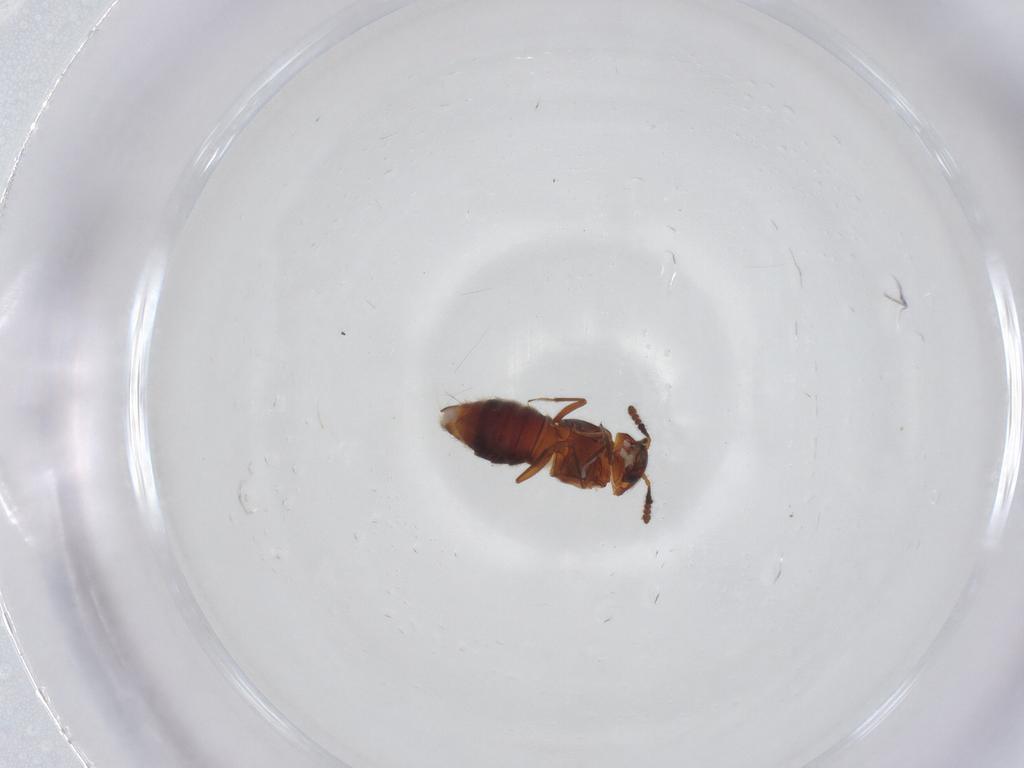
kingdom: Animalia
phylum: Arthropoda
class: Insecta
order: Coleoptera
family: Staphylinidae
